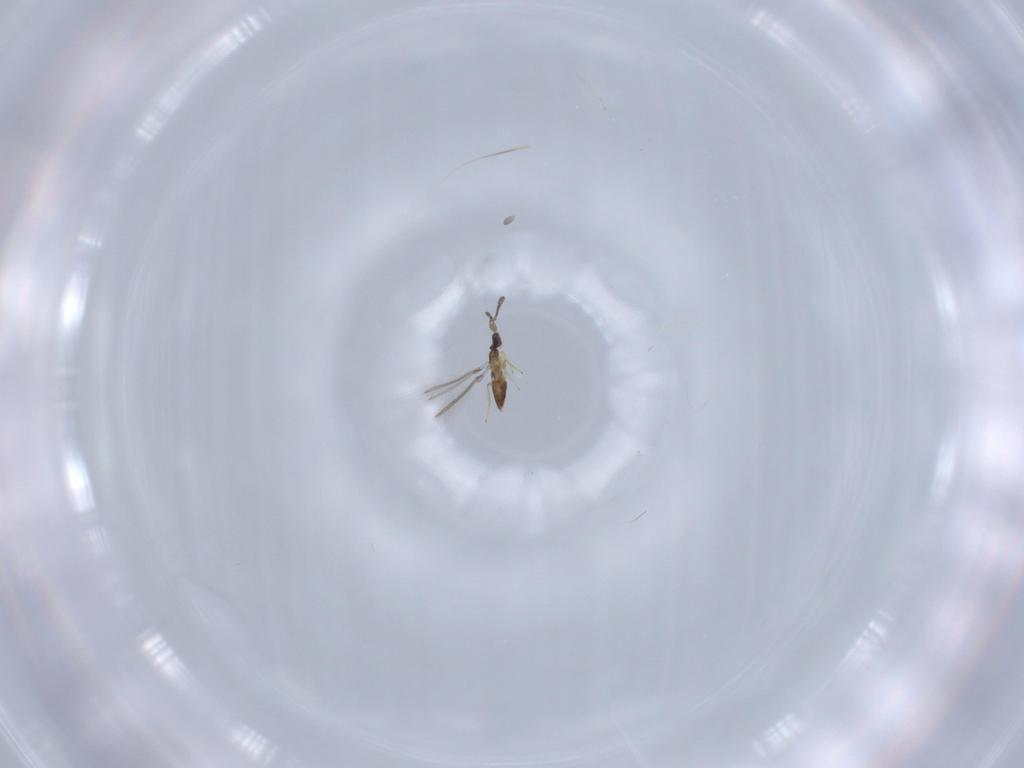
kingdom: Animalia
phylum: Arthropoda
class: Insecta
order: Hymenoptera
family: Mymaridae
